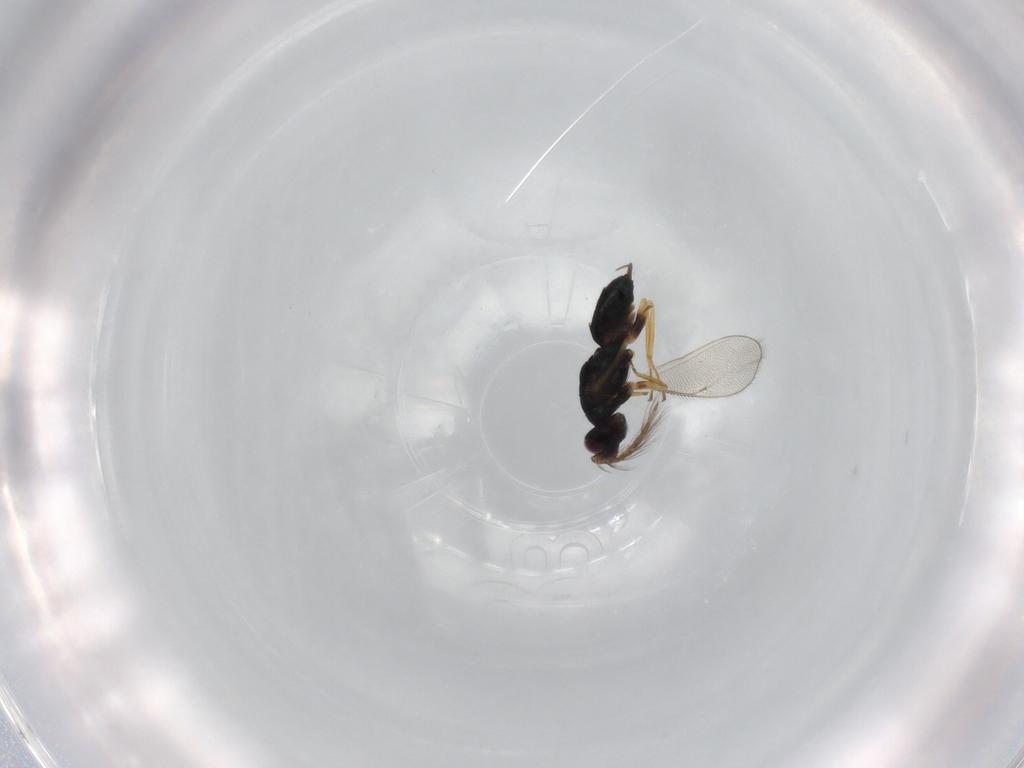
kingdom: Animalia
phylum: Arthropoda
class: Insecta
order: Hymenoptera
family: Eulophidae
